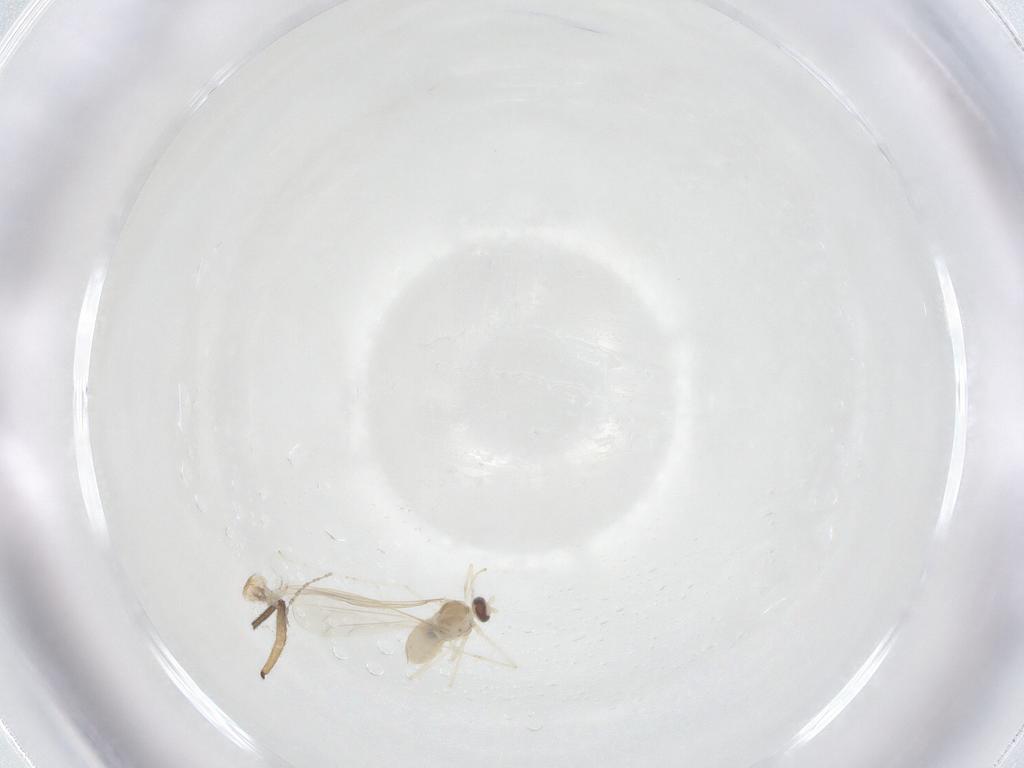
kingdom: Animalia
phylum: Arthropoda
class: Insecta
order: Diptera
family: Cecidomyiidae
